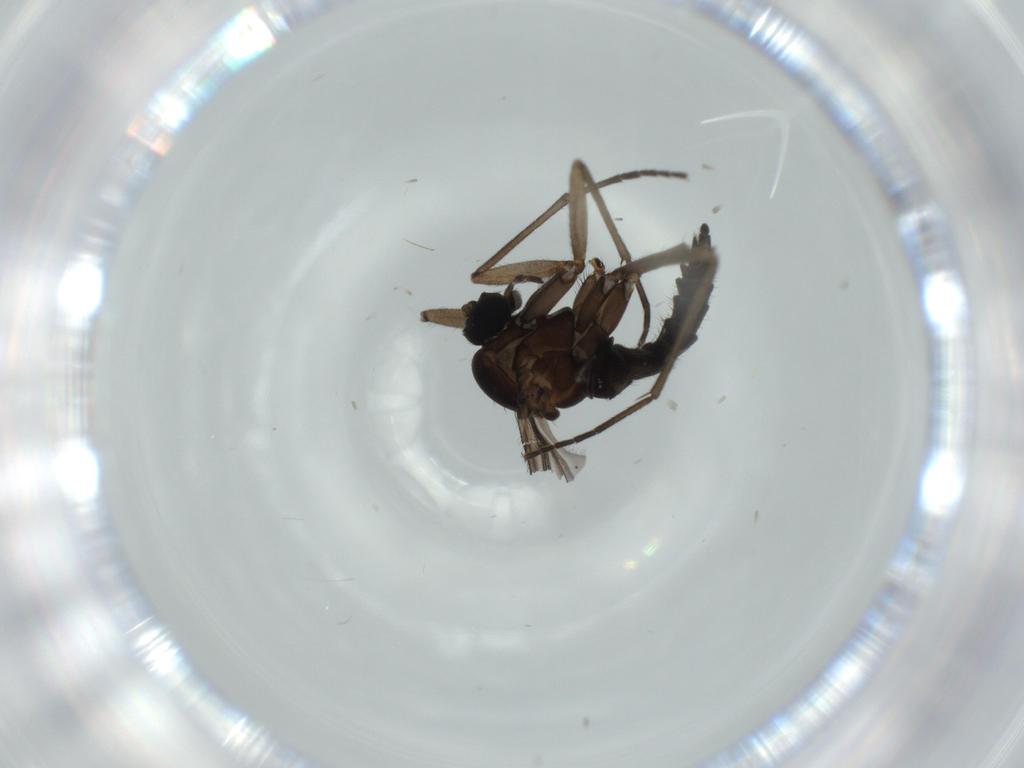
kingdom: Animalia
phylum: Arthropoda
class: Insecta
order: Diptera
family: Sciaridae
